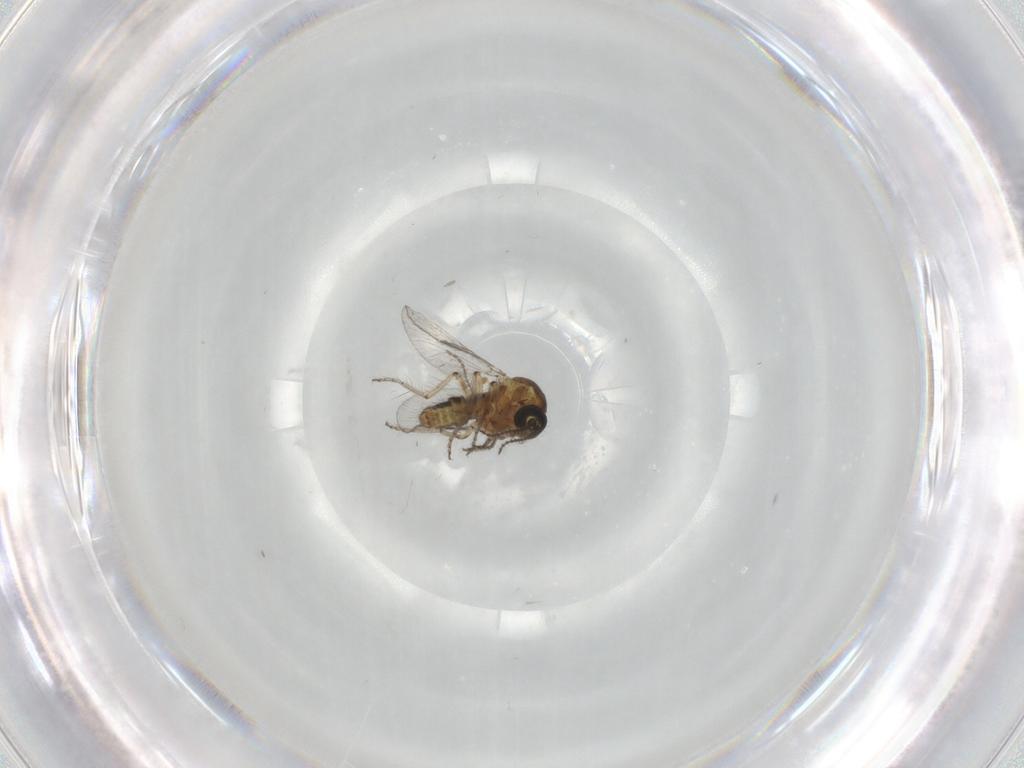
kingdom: Animalia
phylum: Arthropoda
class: Insecta
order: Diptera
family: Ceratopogonidae
